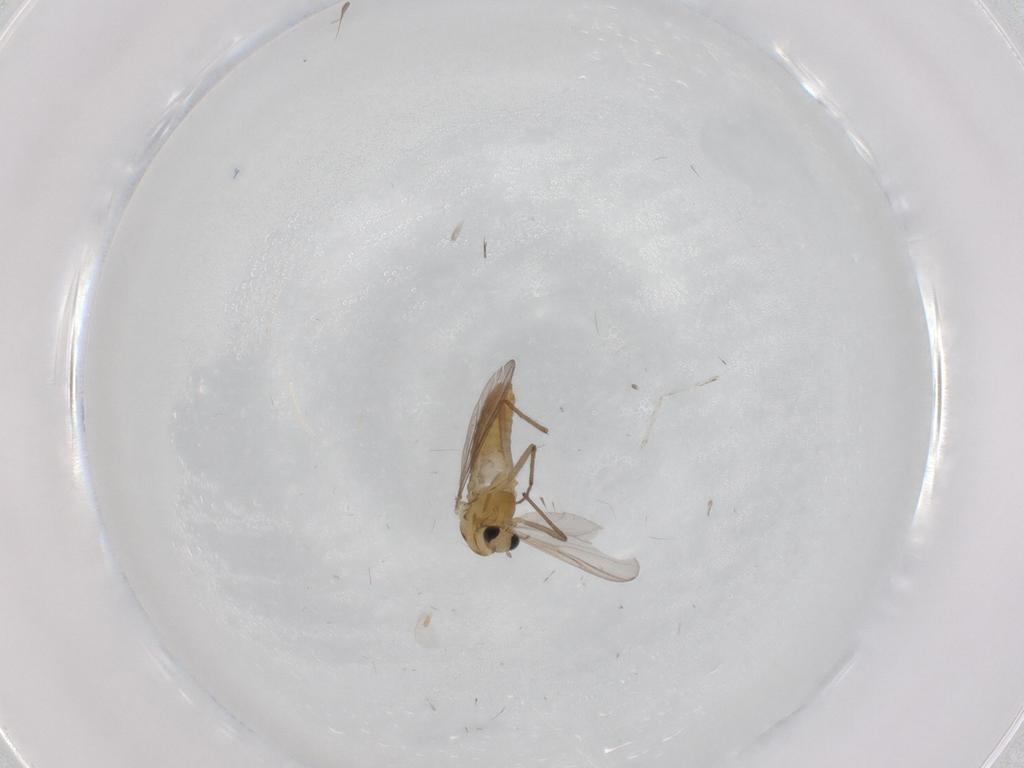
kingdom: Animalia
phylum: Arthropoda
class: Insecta
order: Diptera
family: Chironomidae
